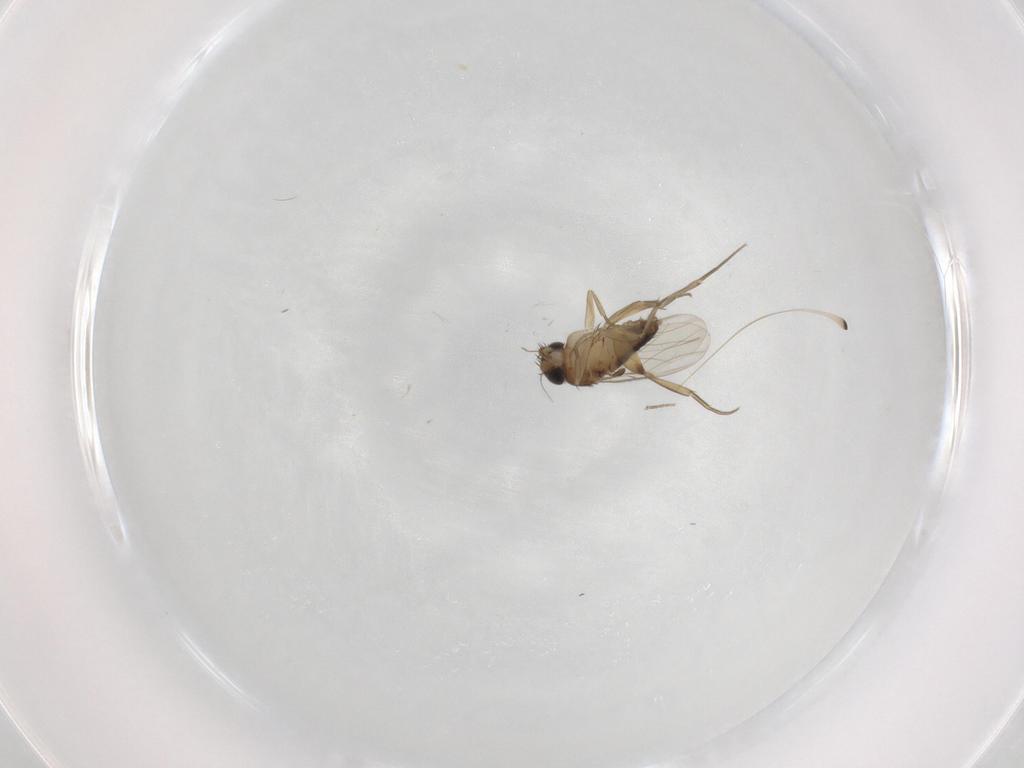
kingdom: Animalia
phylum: Arthropoda
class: Insecta
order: Diptera
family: Phoridae
